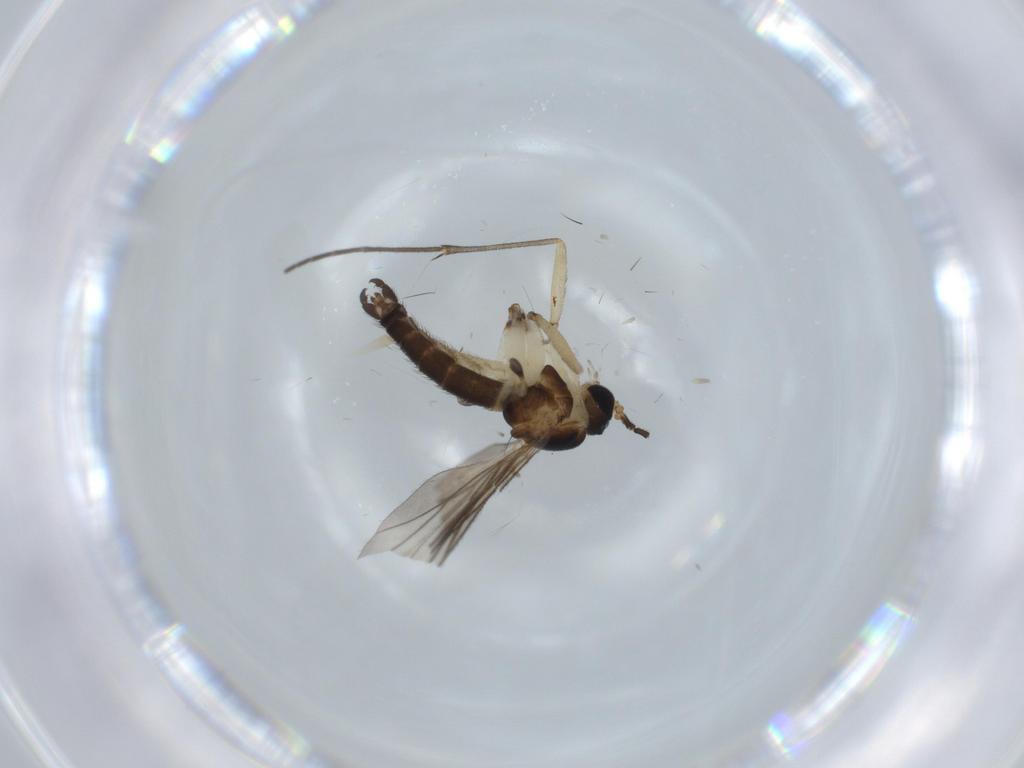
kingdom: Animalia
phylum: Arthropoda
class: Insecta
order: Diptera
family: Sciaridae
